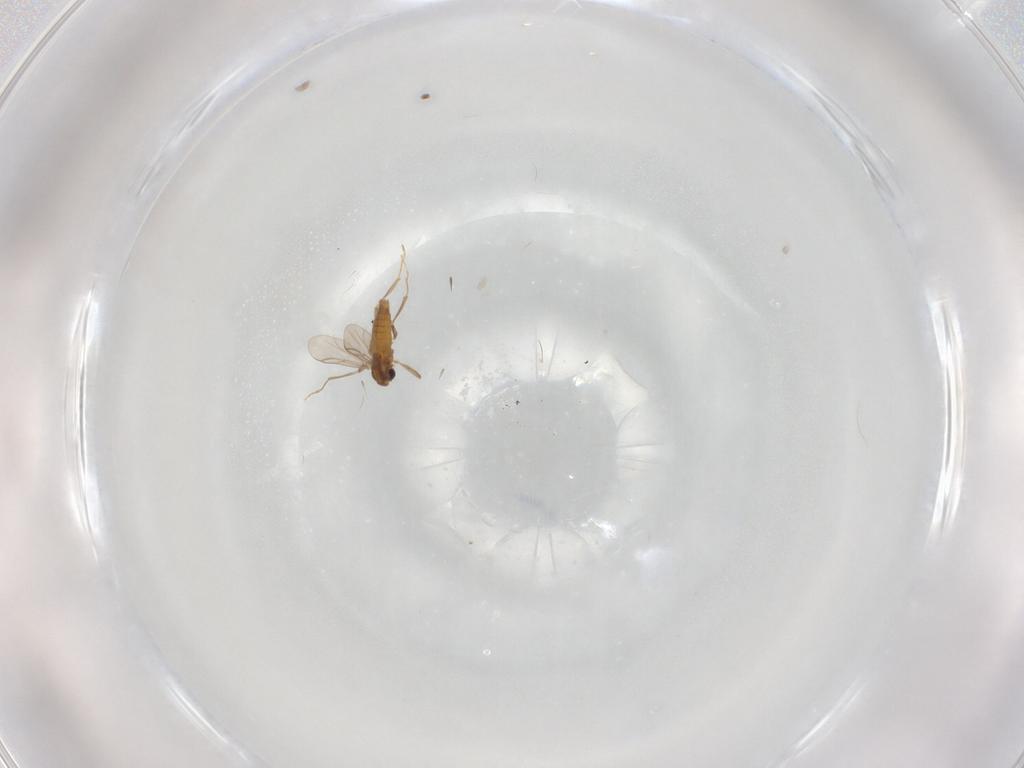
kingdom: Animalia
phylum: Arthropoda
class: Insecta
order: Diptera
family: Chironomidae
